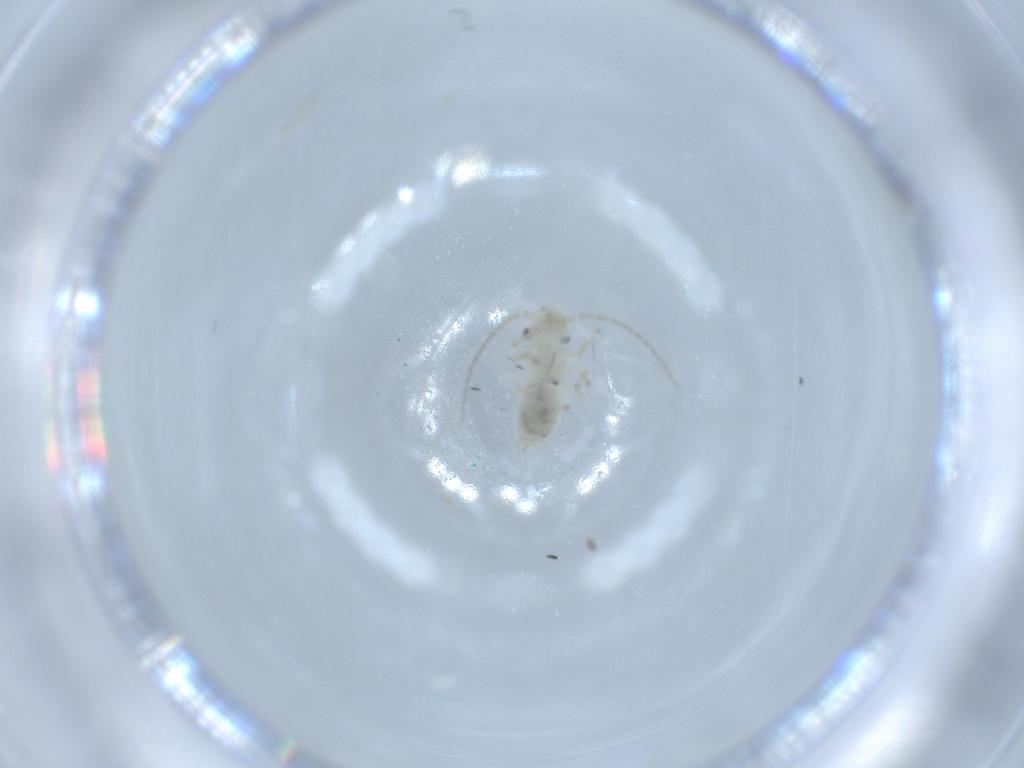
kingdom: Animalia
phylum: Arthropoda
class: Insecta
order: Psocodea
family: Caeciliusidae
